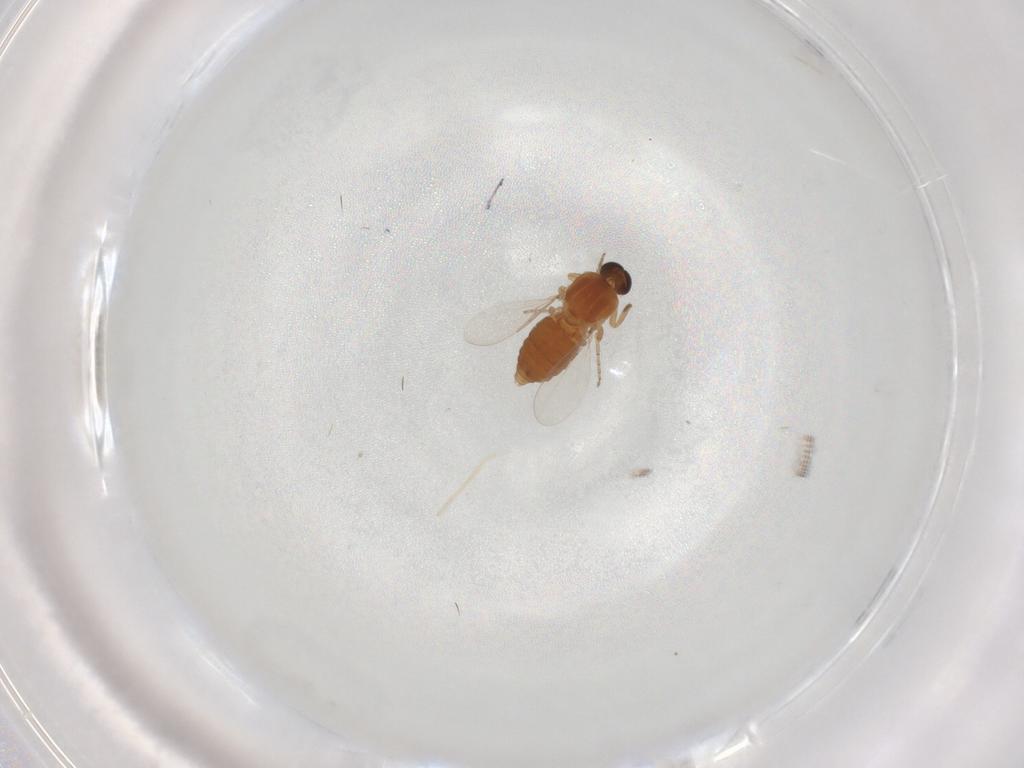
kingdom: Animalia
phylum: Arthropoda
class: Insecta
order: Diptera
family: Ceratopogonidae
